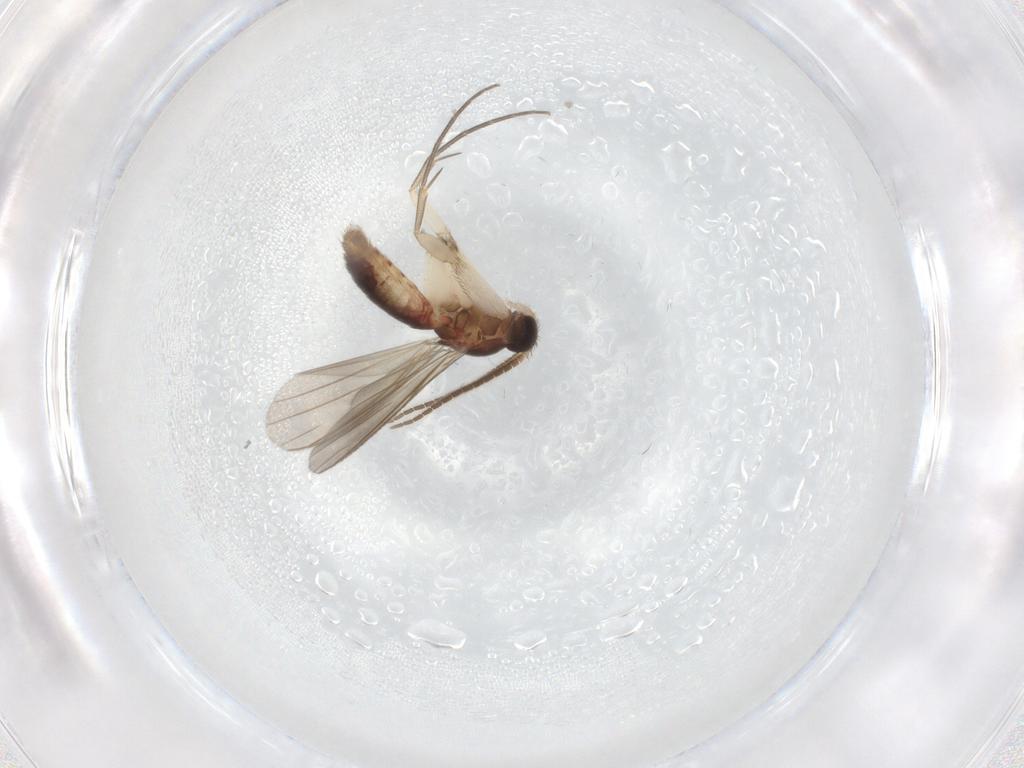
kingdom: Animalia
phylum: Arthropoda
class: Insecta
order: Diptera
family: Mycetophilidae
